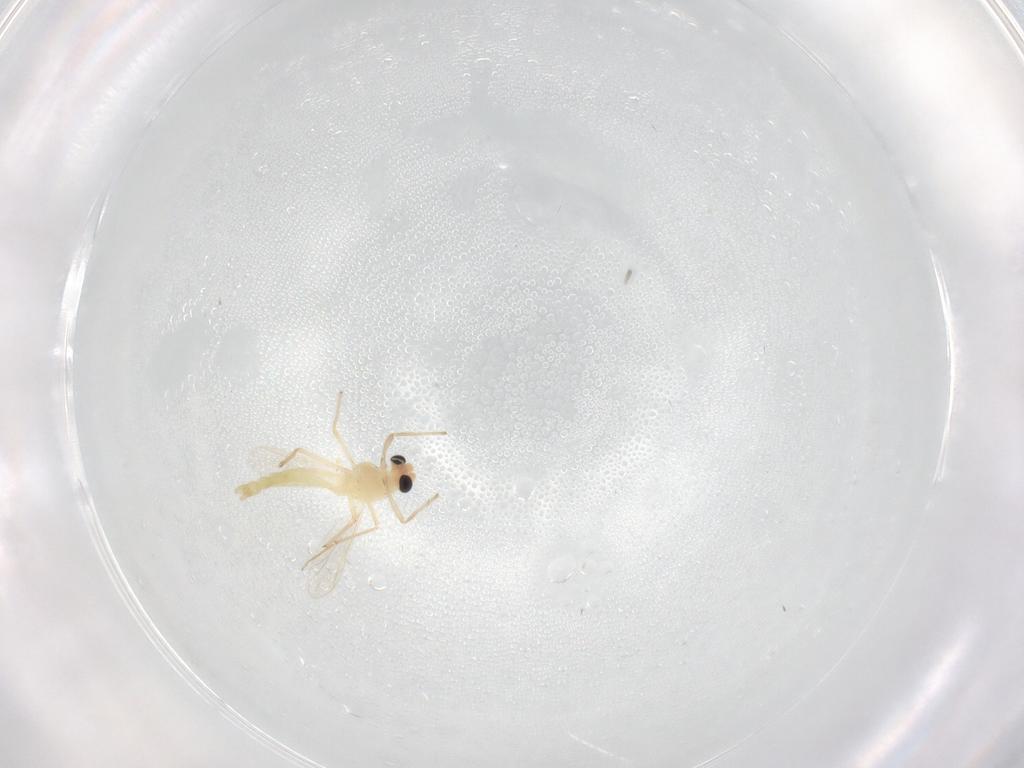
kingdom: Animalia
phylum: Arthropoda
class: Insecta
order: Diptera
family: Chironomidae
